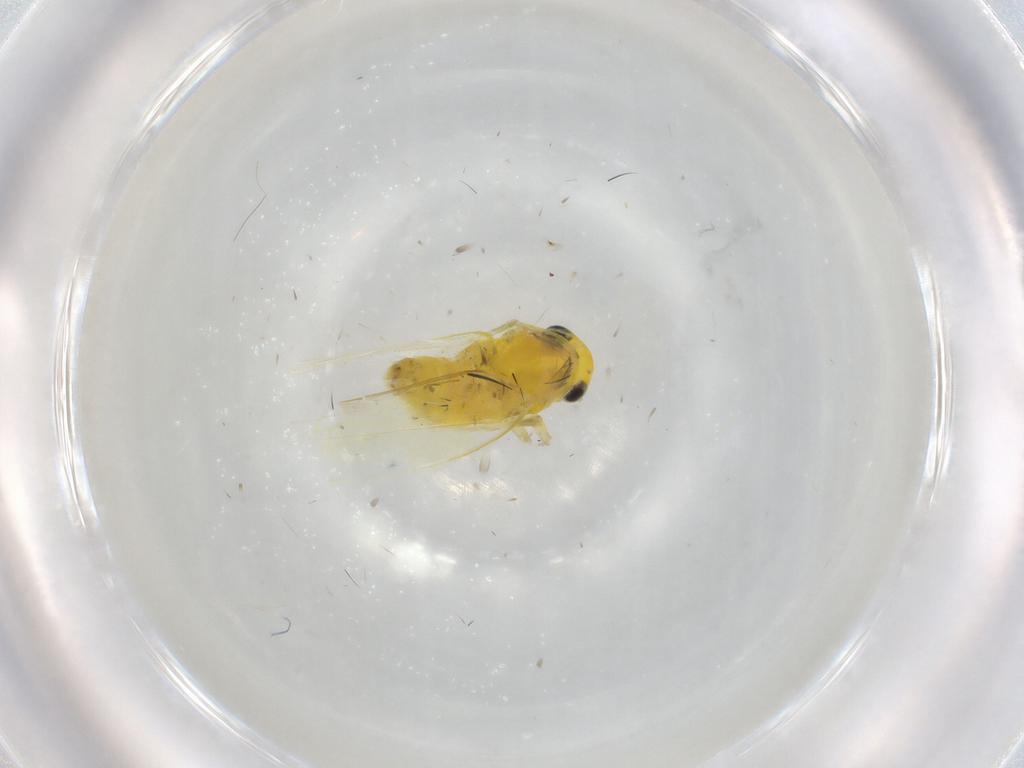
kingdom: Animalia
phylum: Arthropoda
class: Insecta
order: Hemiptera
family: Cicadellidae
